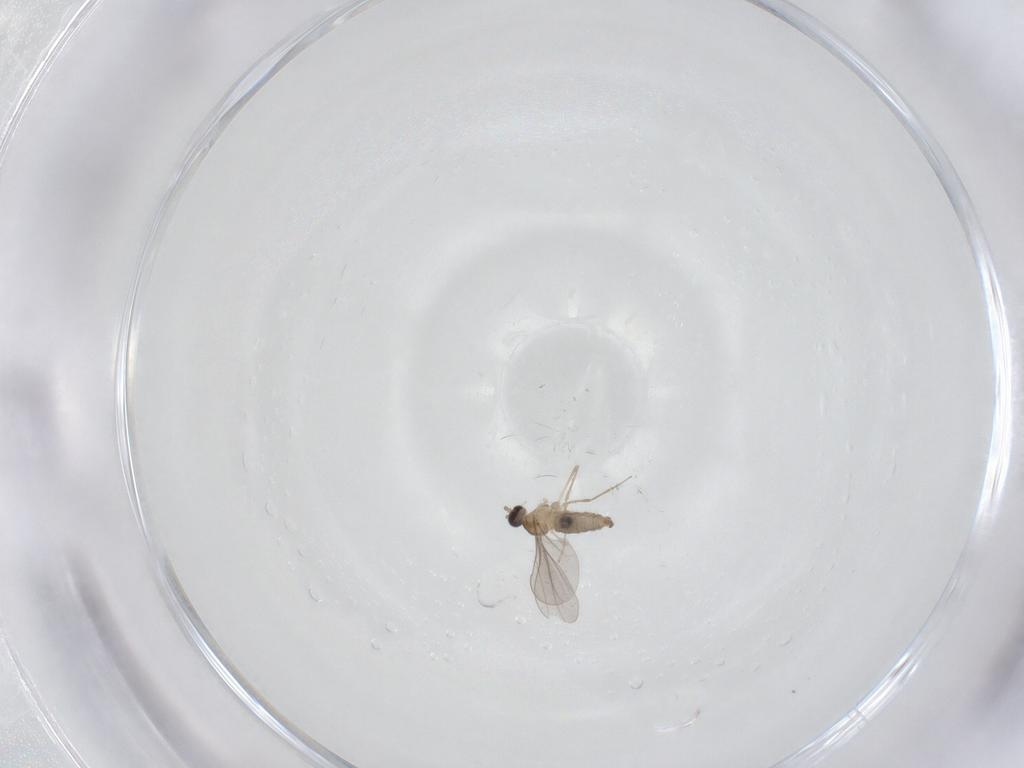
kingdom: Animalia
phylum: Arthropoda
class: Insecta
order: Diptera
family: Cecidomyiidae
